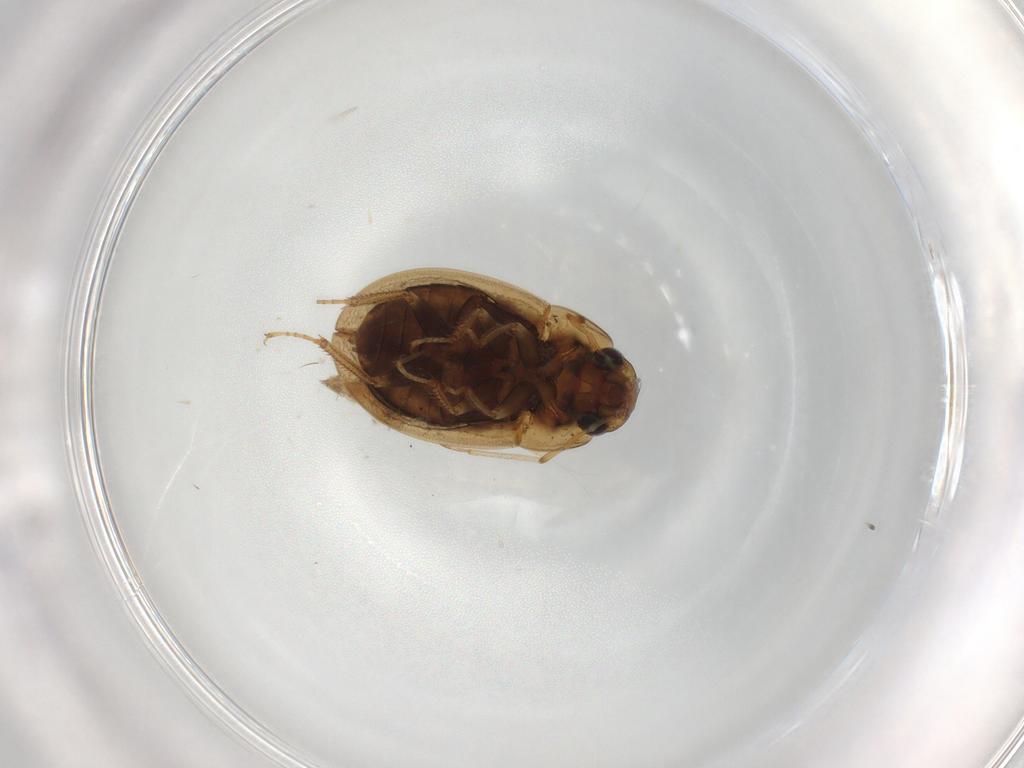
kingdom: Animalia
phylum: Arthropoda
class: Insecta
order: Coleoptera
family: Hydrophilidae
